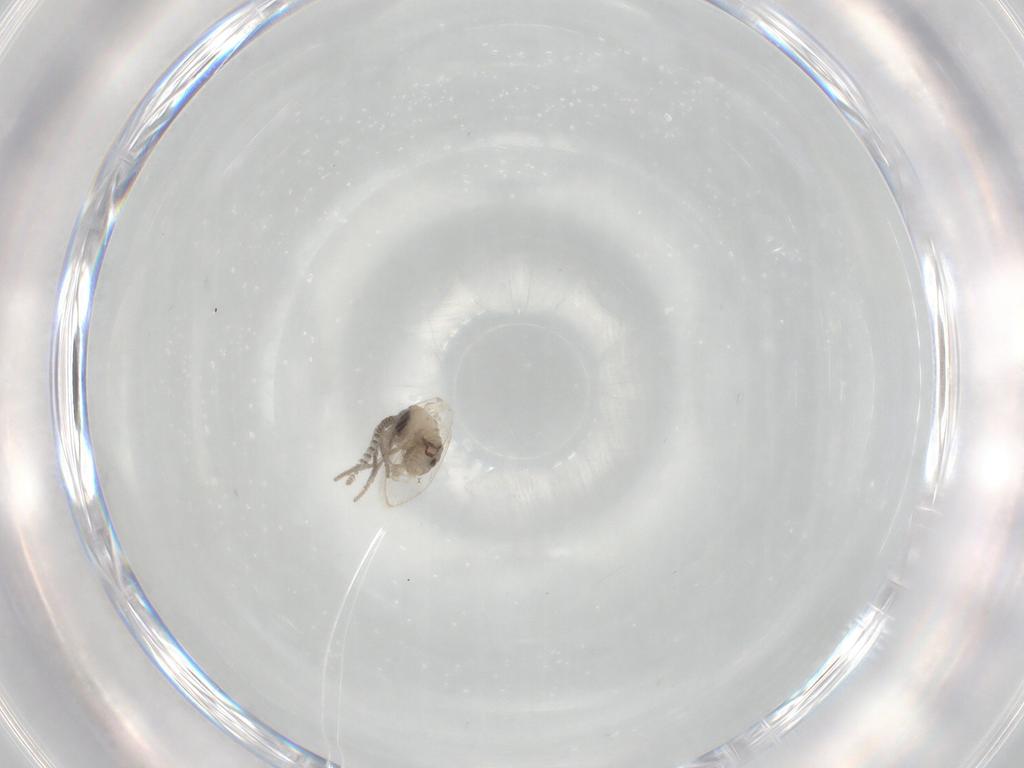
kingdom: Animalia
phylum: Arthropoda
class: Insecta
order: Diptera
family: Psychodidae
